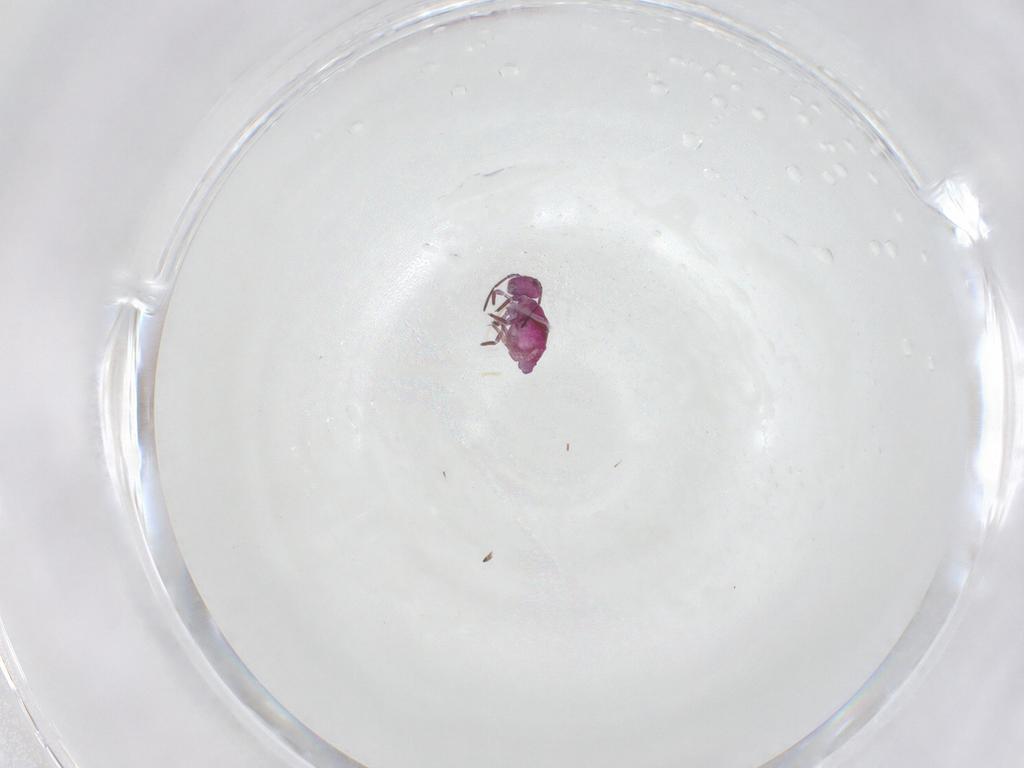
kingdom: Animalia
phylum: Arthropoda
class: Collembola
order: Symphypleona
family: Sminthuridae
